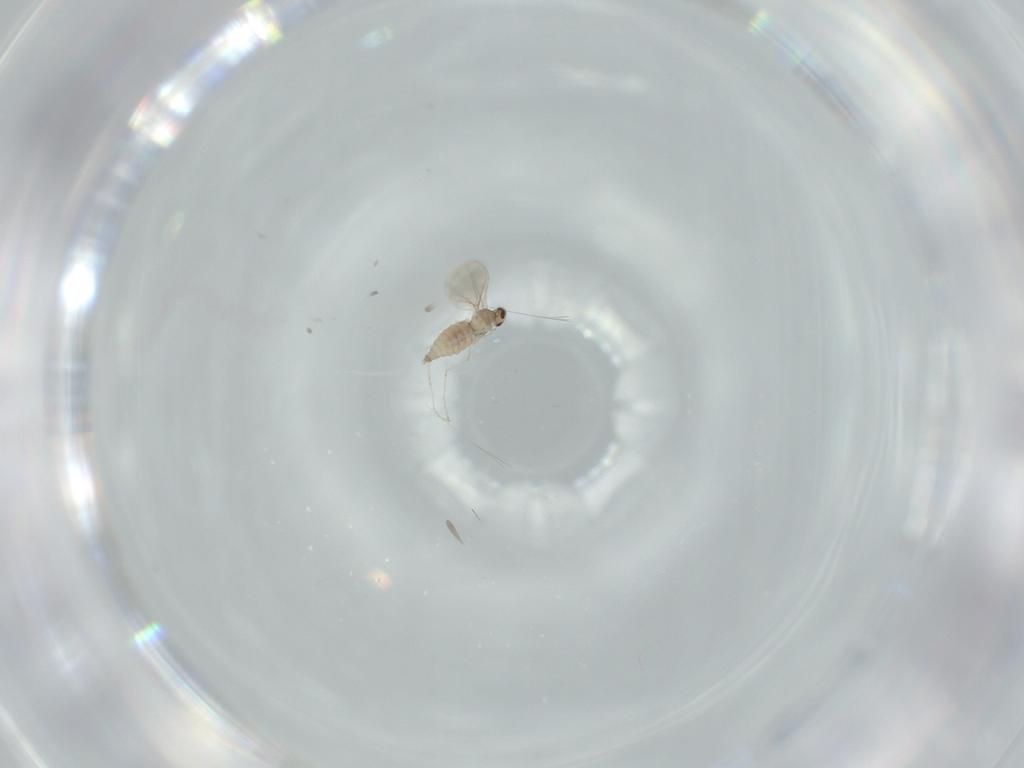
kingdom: Animalia
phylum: Arthropoda
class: Insecta
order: Diptera
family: Cecidomyiidae
